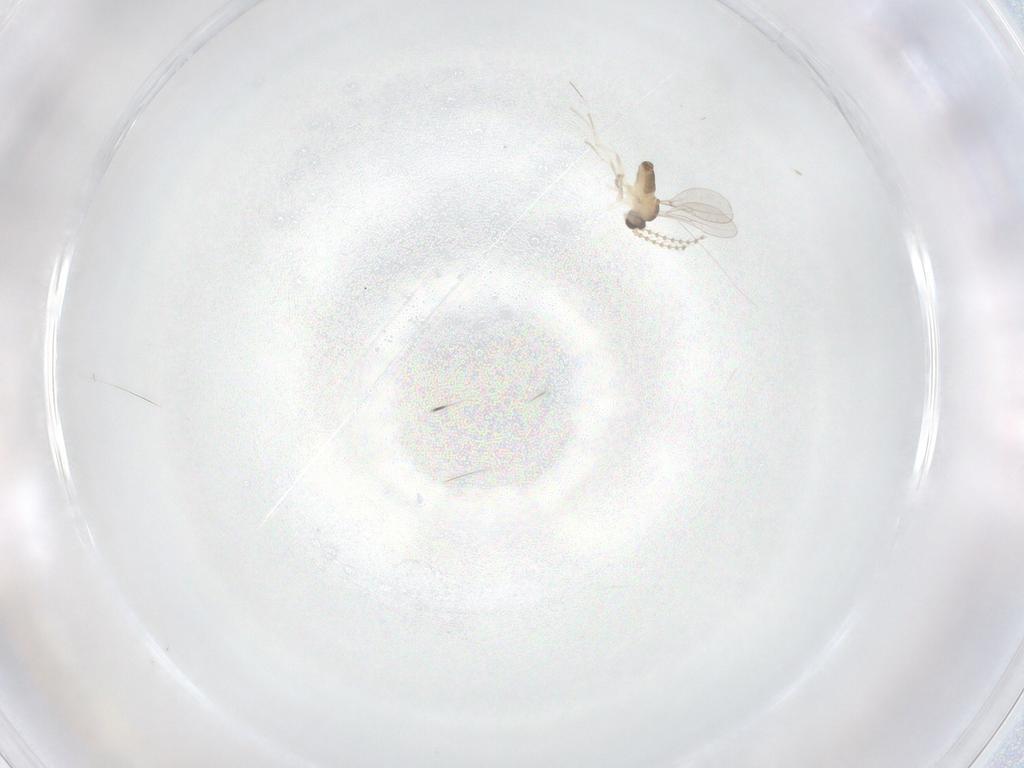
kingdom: Animalia
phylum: Arthropoda
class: Insecta
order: Diptera
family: Cecidomyiidae
